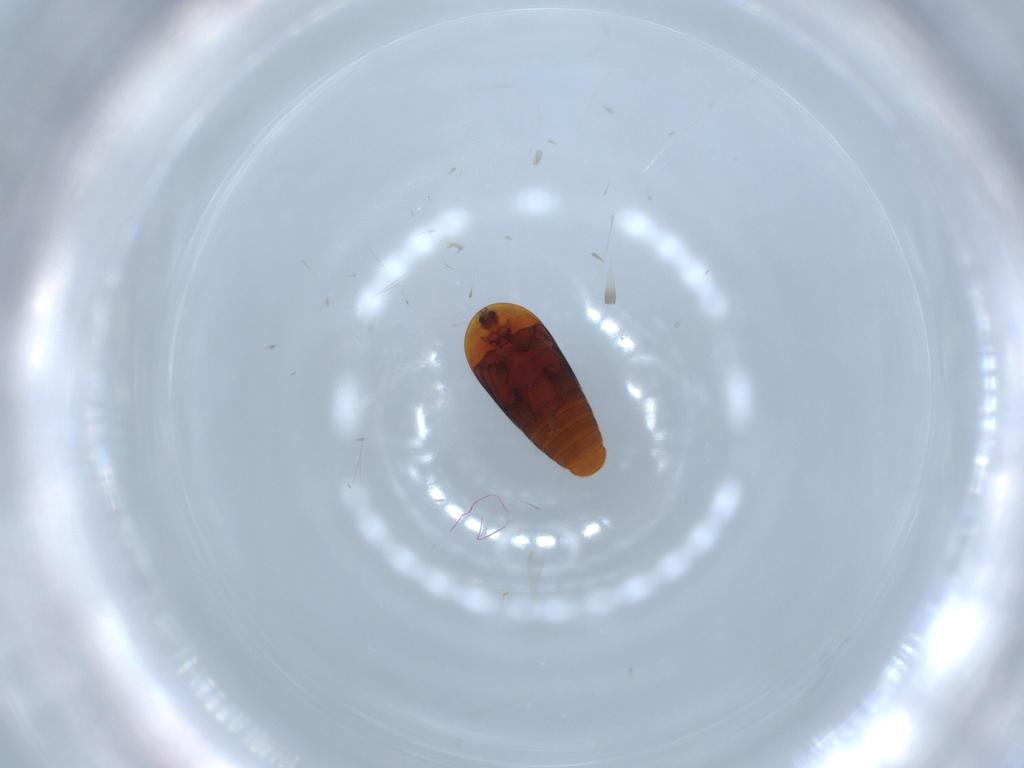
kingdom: Animalia
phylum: Arthropoda
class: Insecta
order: Coleoptera
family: Corylophidae
